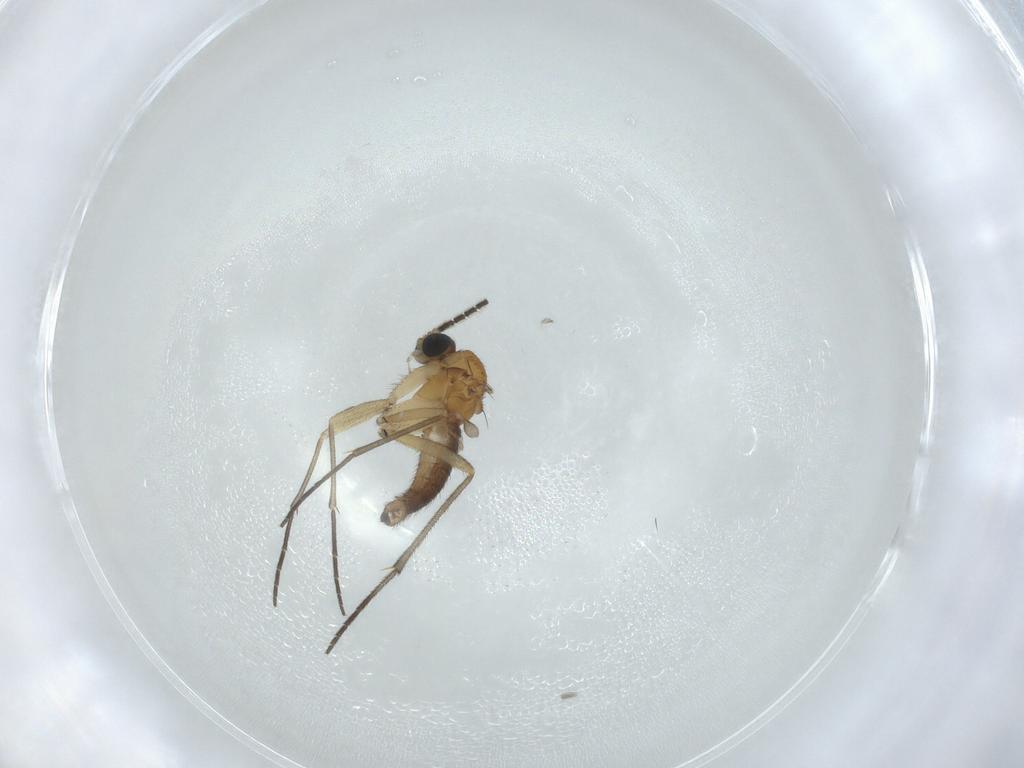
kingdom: Animalia
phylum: Arthropoda
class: Insecta
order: Diptera
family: Sciaridae
